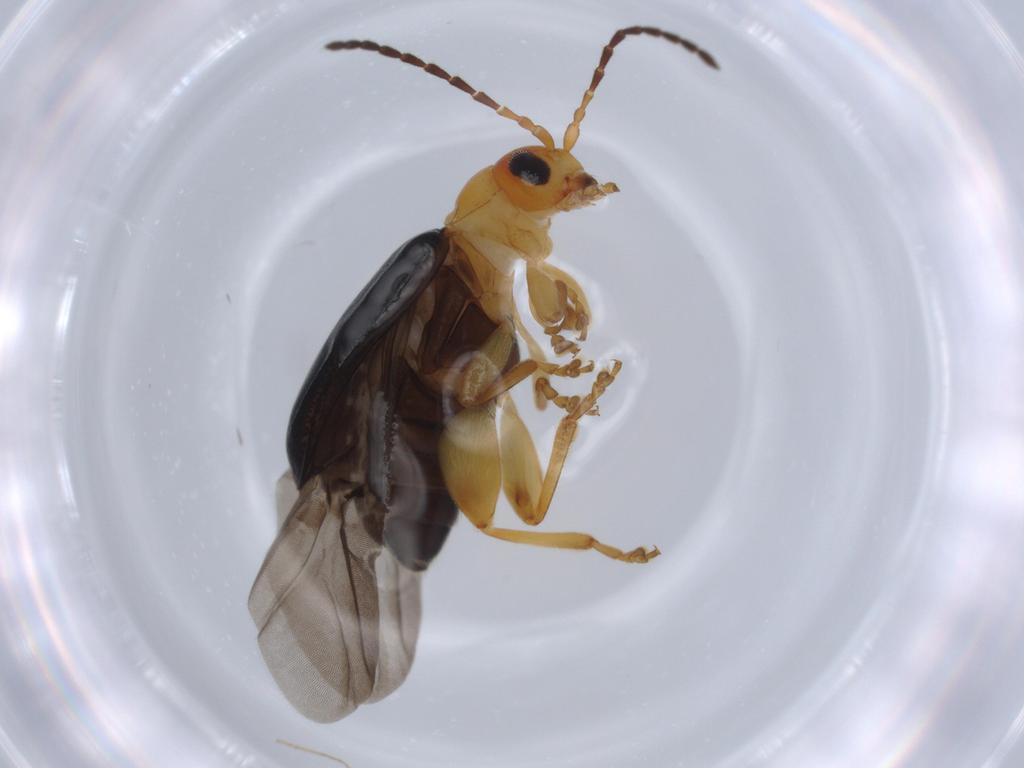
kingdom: Animalia
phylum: Arthropoda
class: Insecta
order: Coleoptera
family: Chrysomelidae
